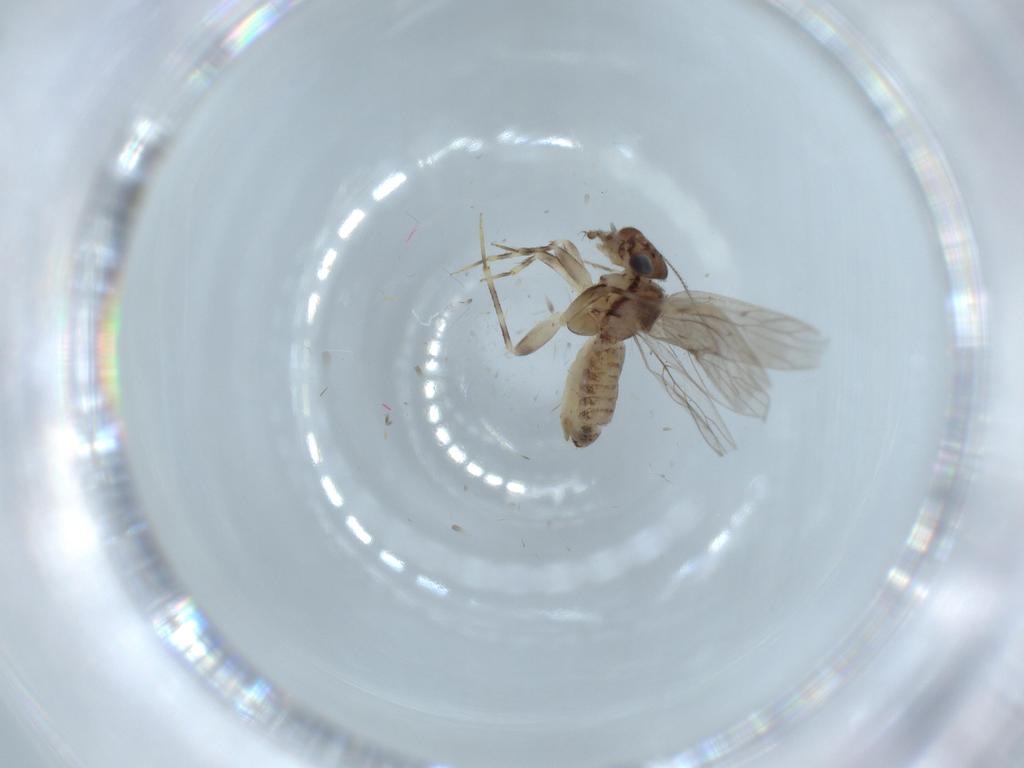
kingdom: Animalia
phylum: Arthropoda
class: Insecta
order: Psocodea
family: Lepidopsocidae
